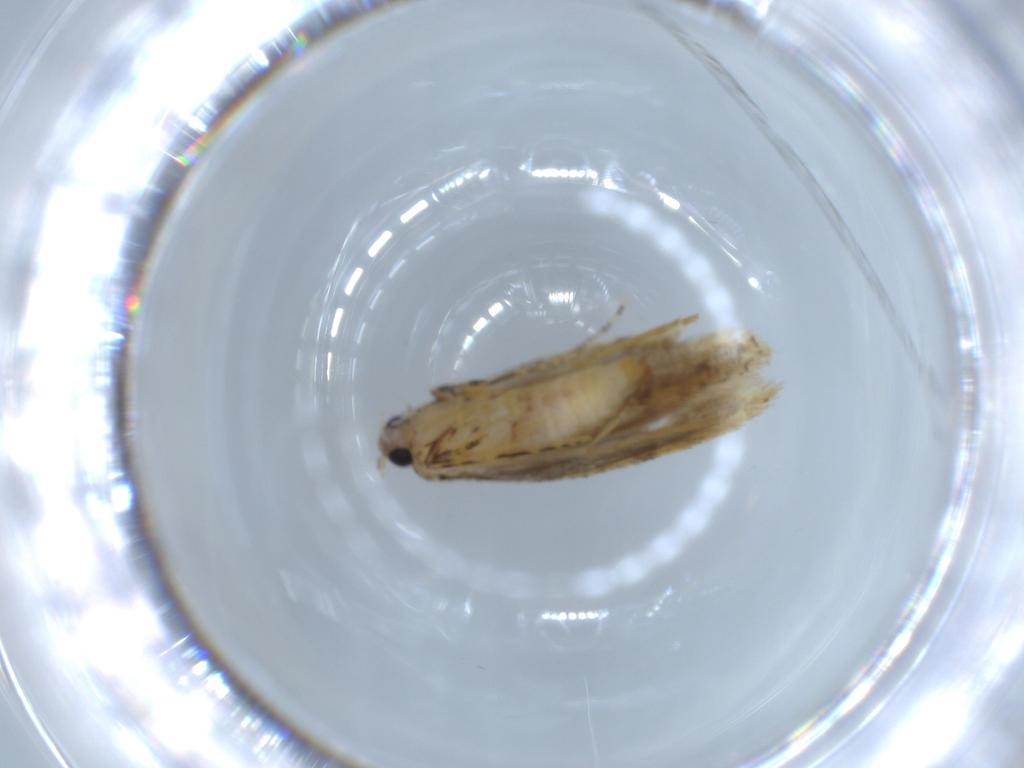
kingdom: Animalia
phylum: Arthropoda
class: Insecta
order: Lepidoptera
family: Tineidae
